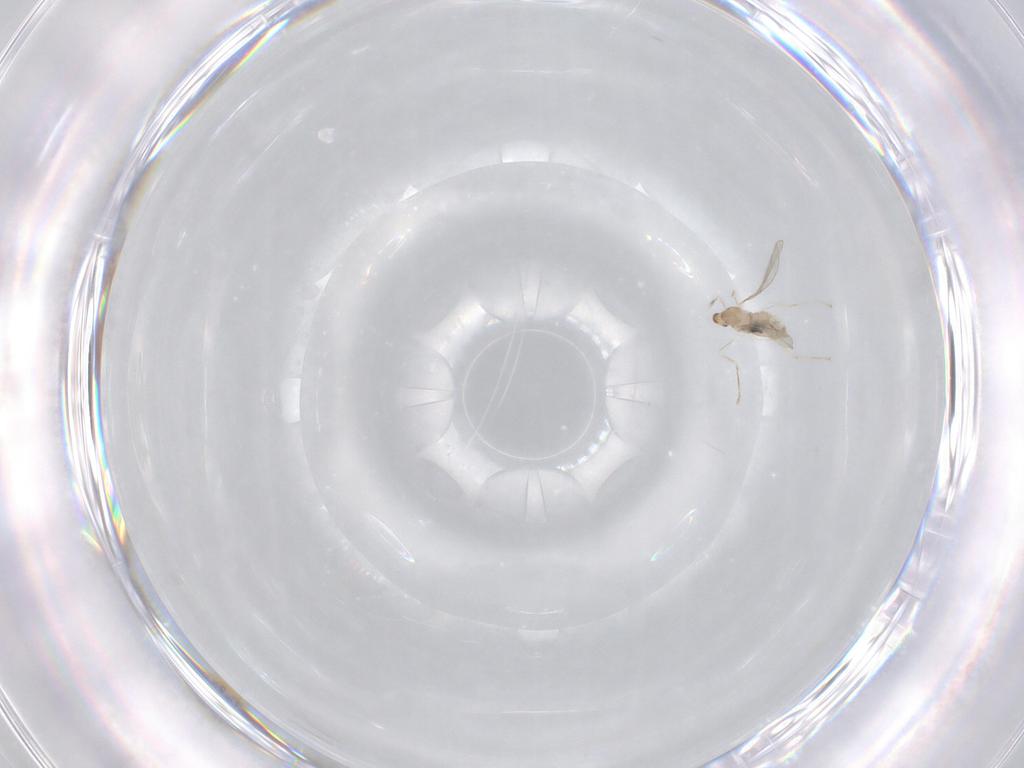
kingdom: Animalia
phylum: Arthropoda
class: Insecta
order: Diptera
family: Cecidomyiidae
